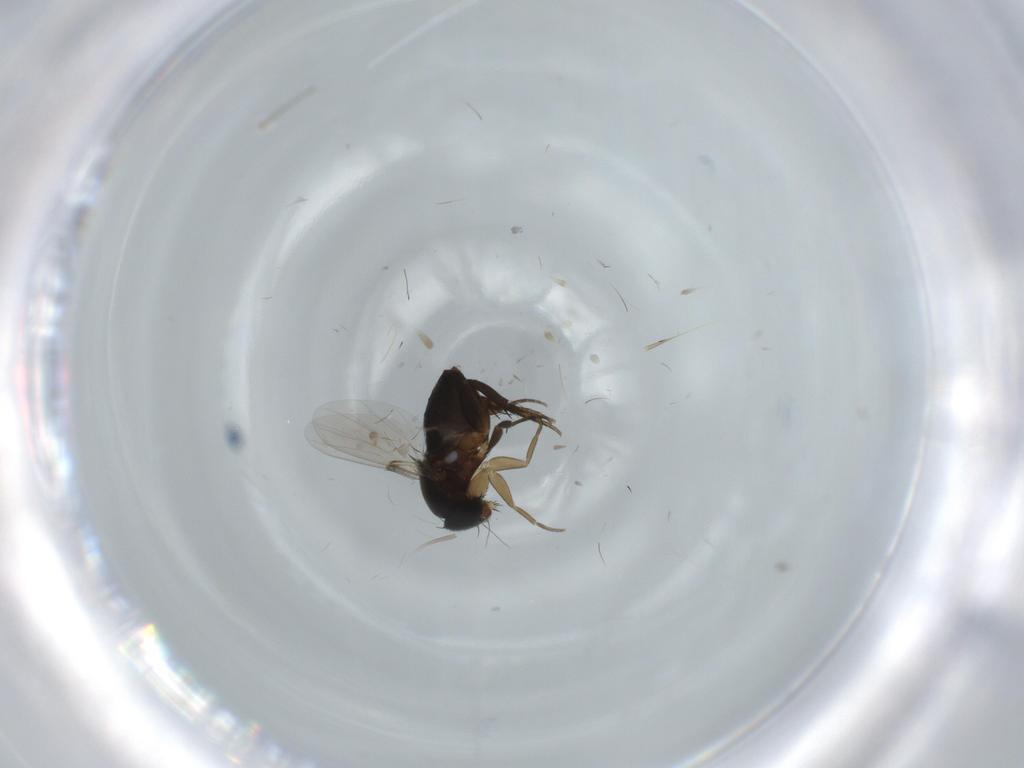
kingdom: Animalia
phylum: Arthropoda
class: Insecta
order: Diptera
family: Phoridae
